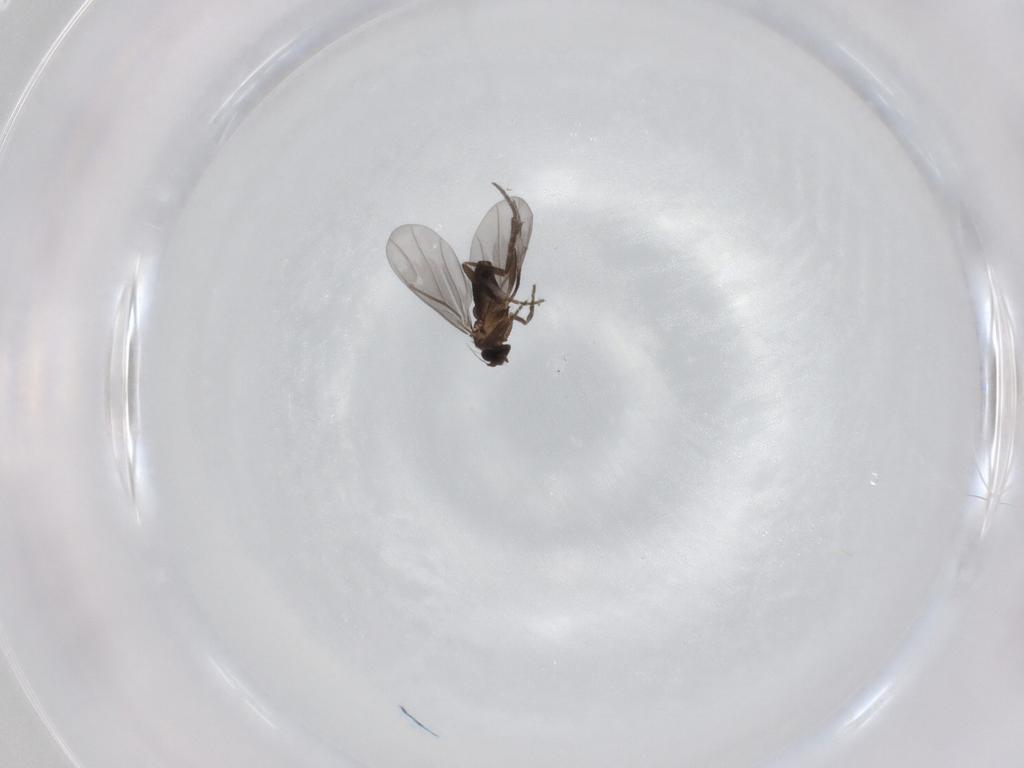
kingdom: Animalia
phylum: Arthropoda
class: Insecta
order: Diptera
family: Phoridae
